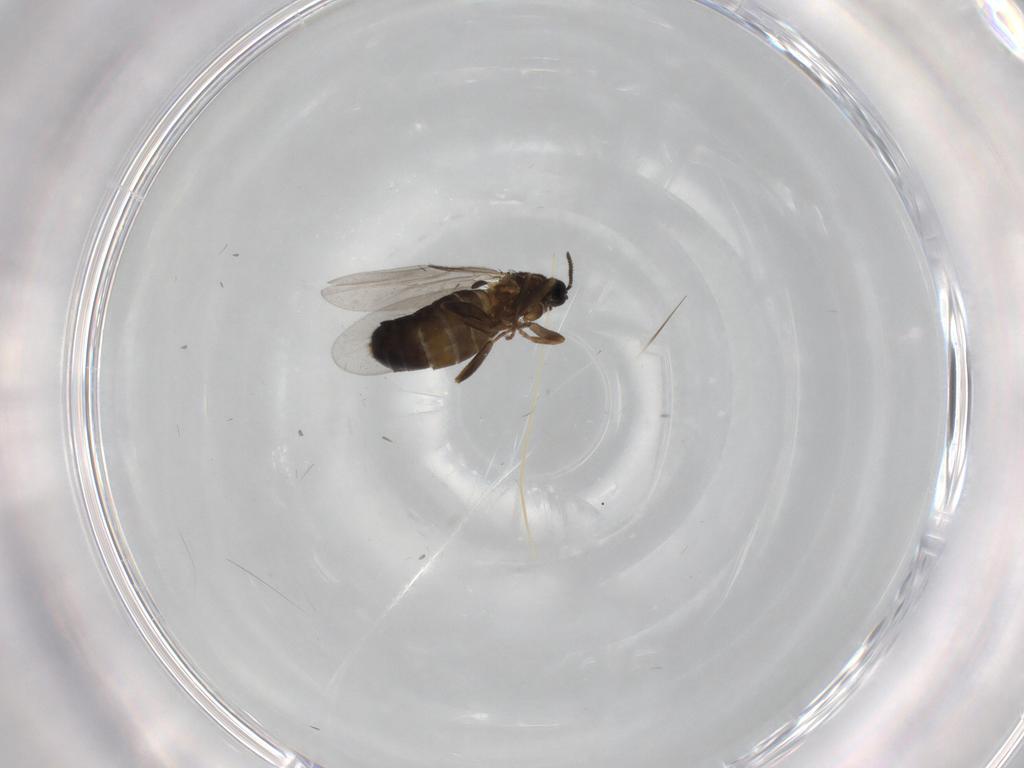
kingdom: Animalia
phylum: Arthropoda
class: Insecta
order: Diptera
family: Scatopsidae
